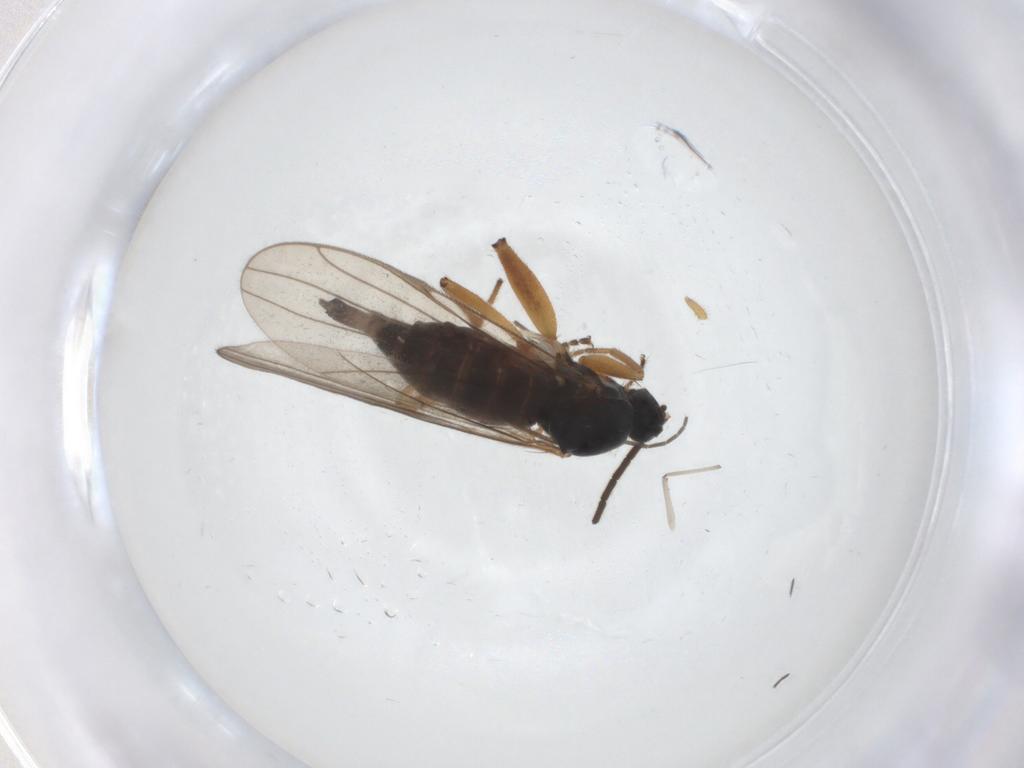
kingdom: Animalia
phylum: Arthropoda
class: Insecta
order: Diptera
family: Hybotidae
